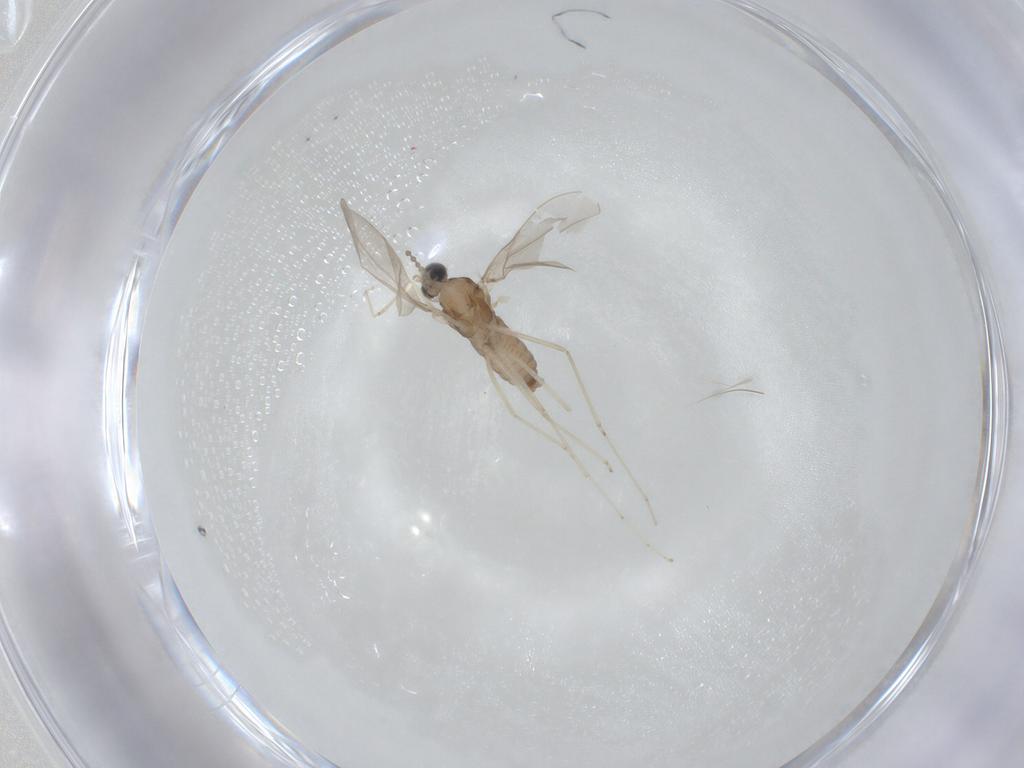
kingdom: Animalia
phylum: Arthropoda
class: Insecta
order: Diptera
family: Cecidomyiidae
